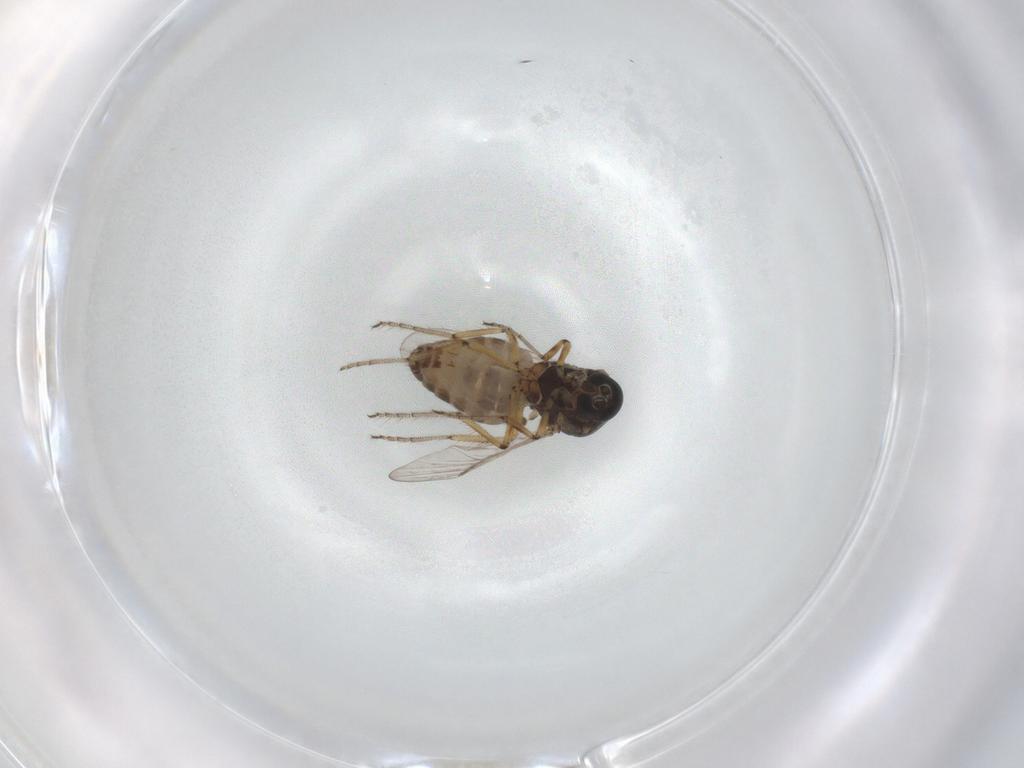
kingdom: Animalia
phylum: Arthropoda
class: Insecta
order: Diptera
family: Ceratopogonidae
